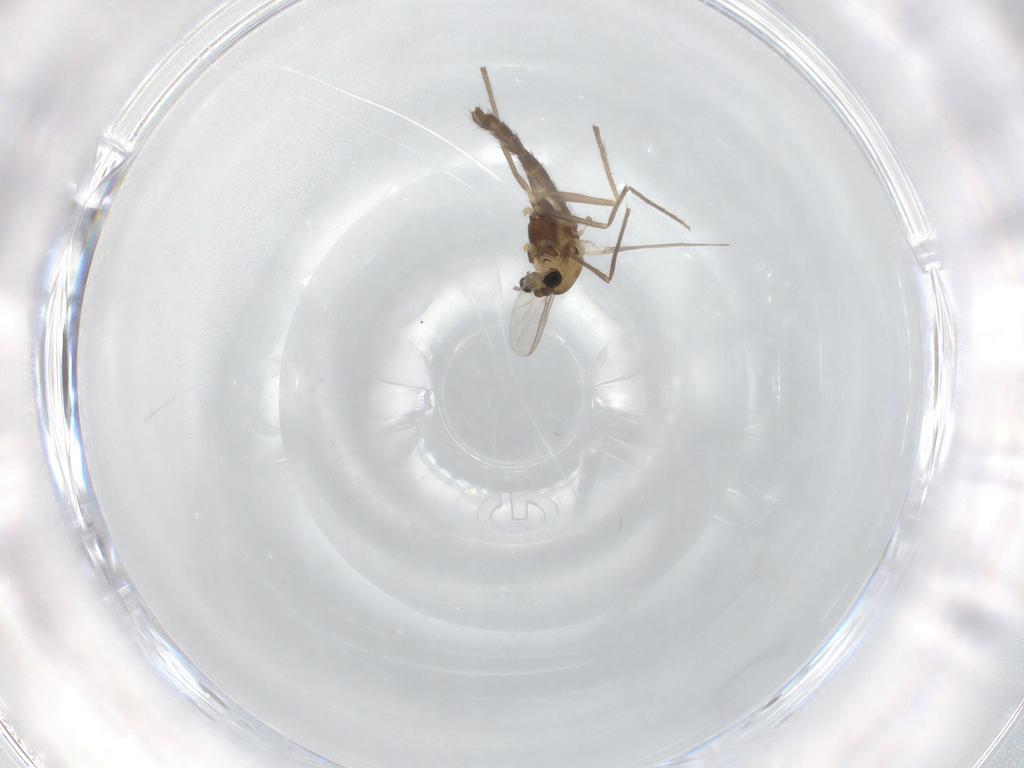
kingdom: Animalia
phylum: Arthropoda
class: Insecta
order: Diptera
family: Chironomidae
